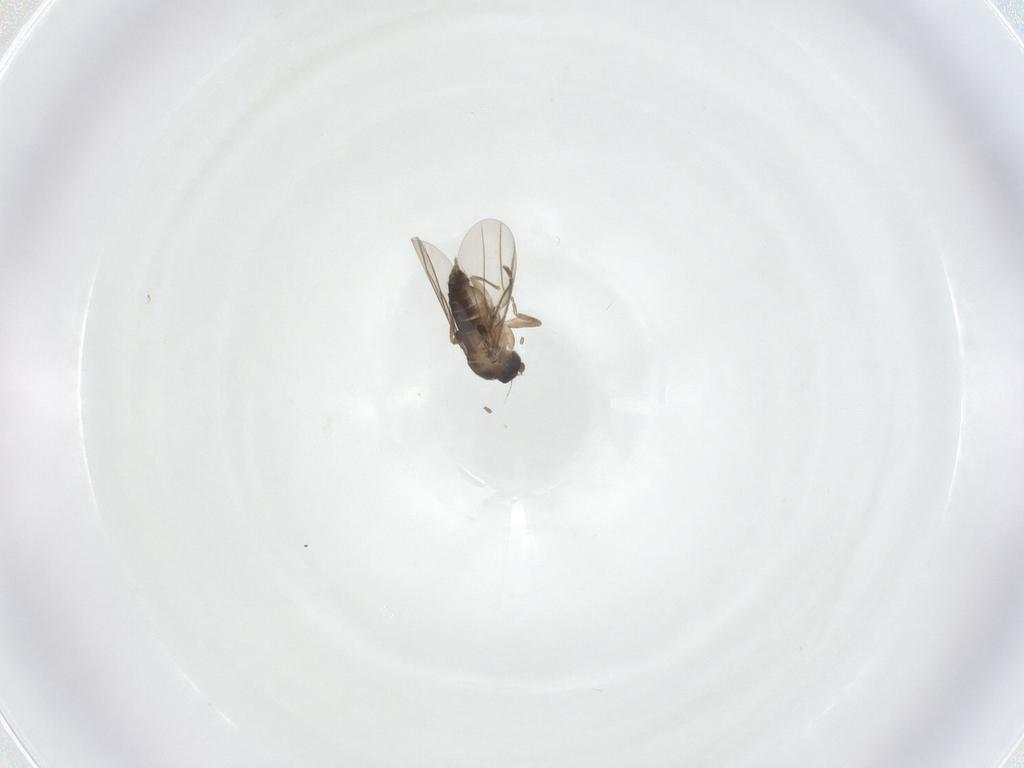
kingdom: Animalia
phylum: Arthropoda
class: Insecta
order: Diptera
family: Phoridae
